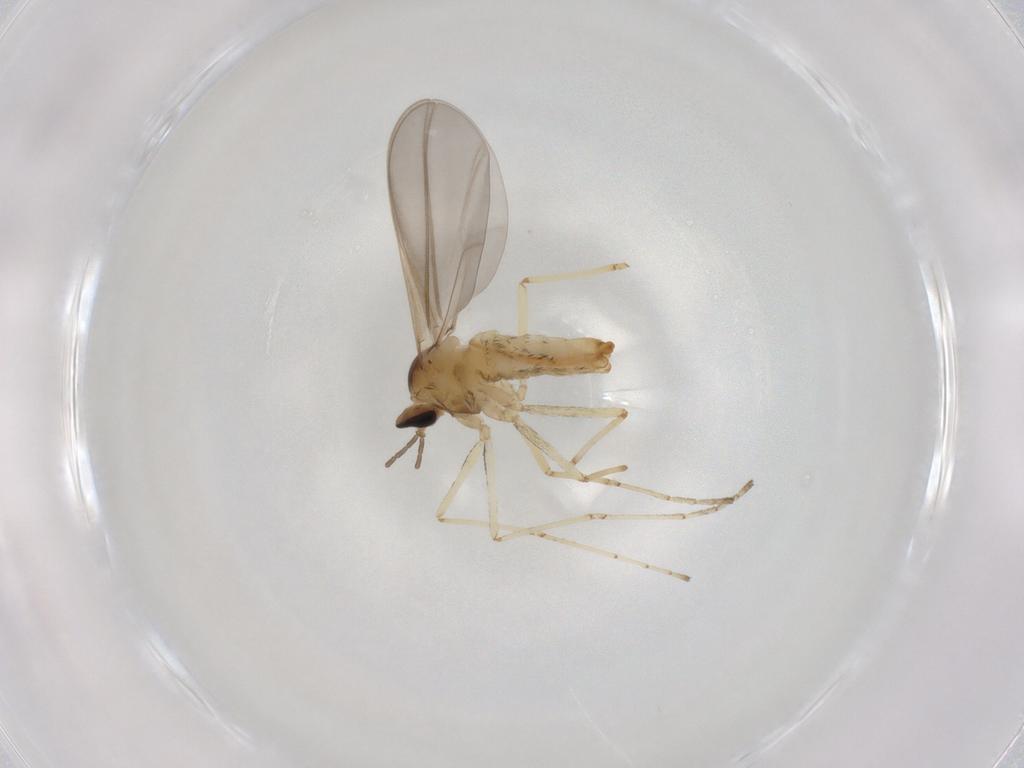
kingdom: Animalia
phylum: Arthropoda
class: Insecta
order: Diptera
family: Cecidomyiidae
